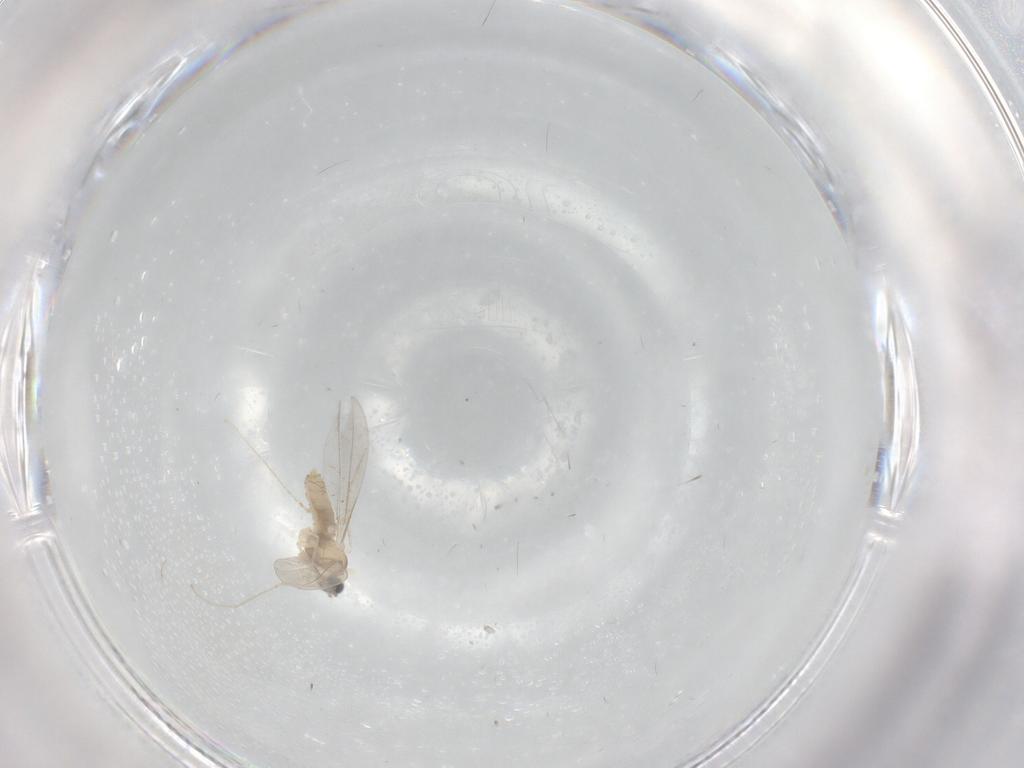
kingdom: Animalia
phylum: Arthropoda
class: Insecta
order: Diptera
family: Cecidomyiidae
